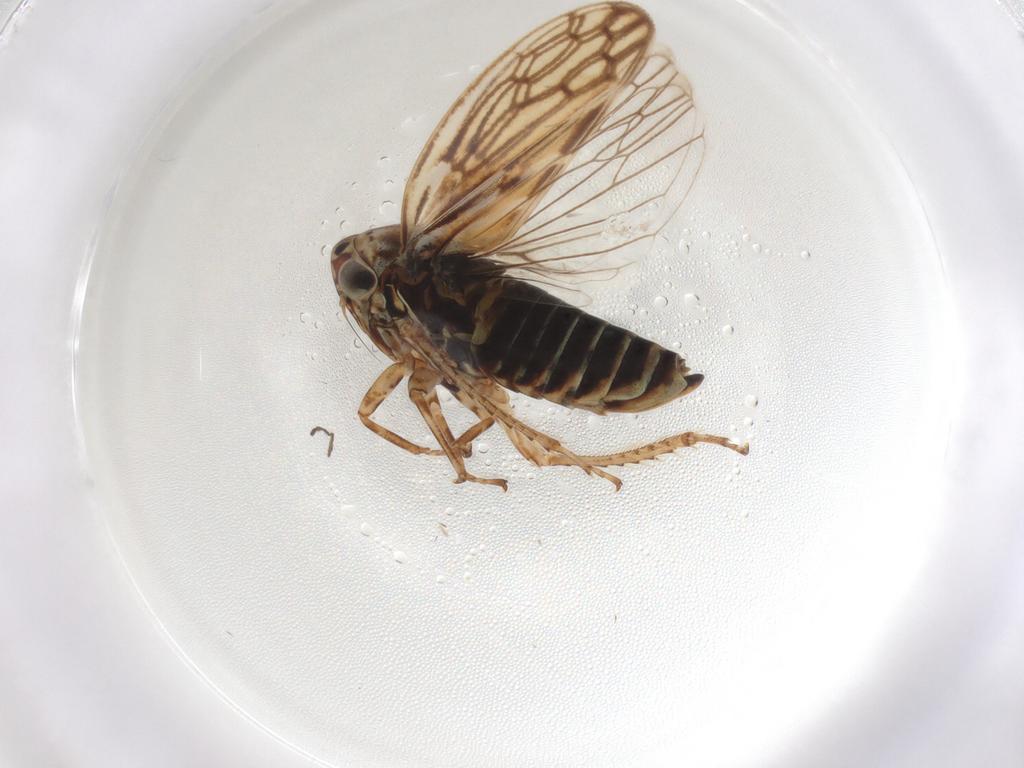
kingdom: Animalia
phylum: Arthropoda
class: Insecta
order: Hemiptera
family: Cicadellidae
